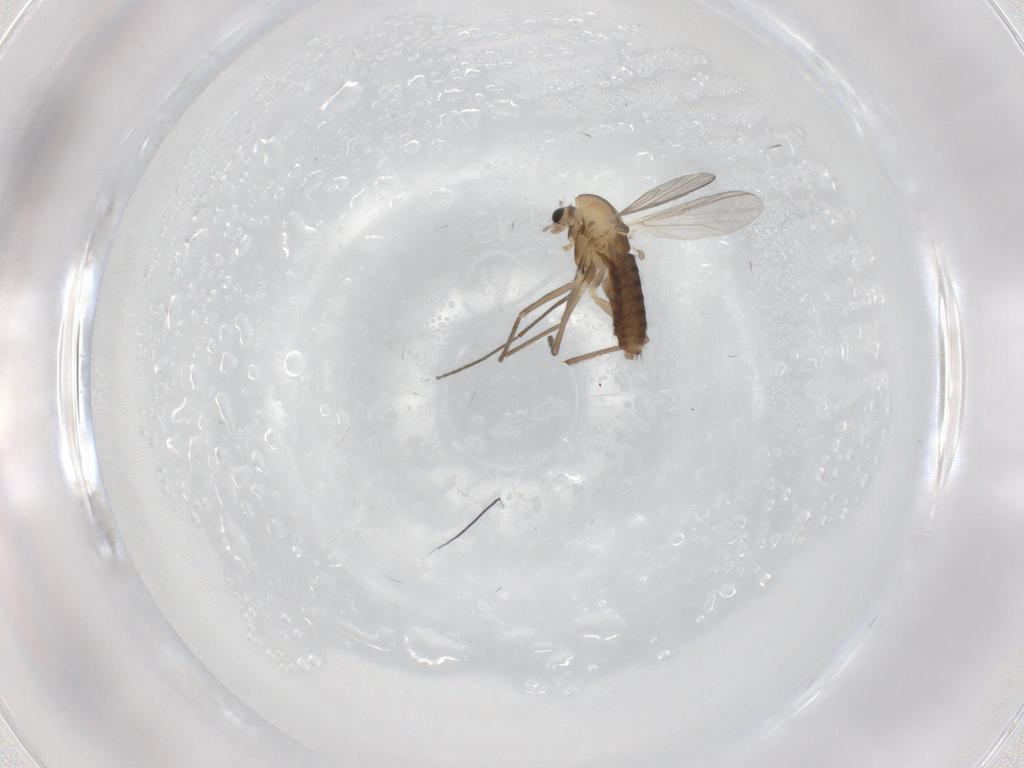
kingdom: Animalia
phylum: Arthropoda
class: Insecta
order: Diptera
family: Chironomidae
